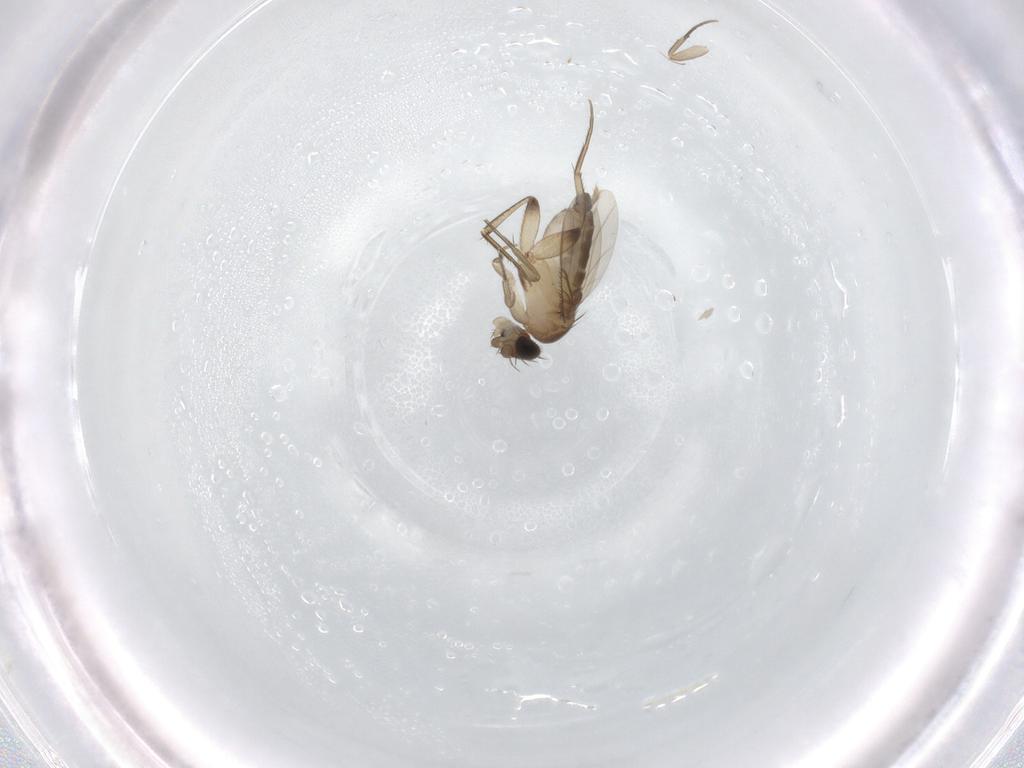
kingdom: Animalia
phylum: Arthropoda
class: Insecta
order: Diptera
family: Phoridae
